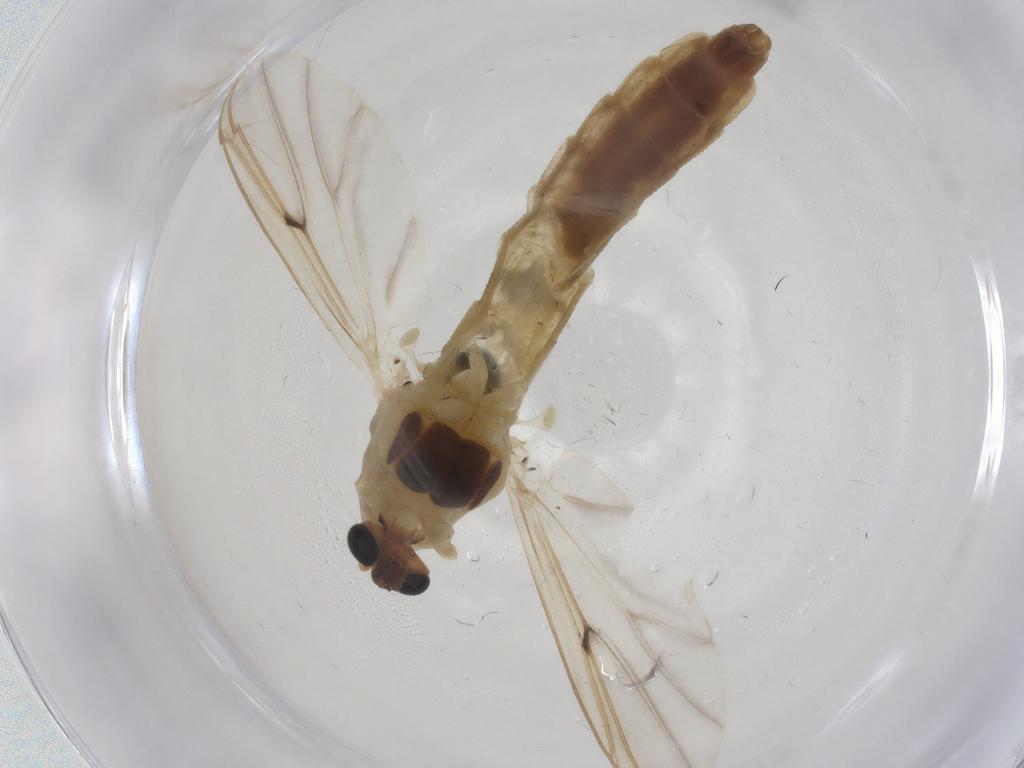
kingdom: Animalia
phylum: Arthropoda
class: Insecta
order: Diptera
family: Chironomidae
